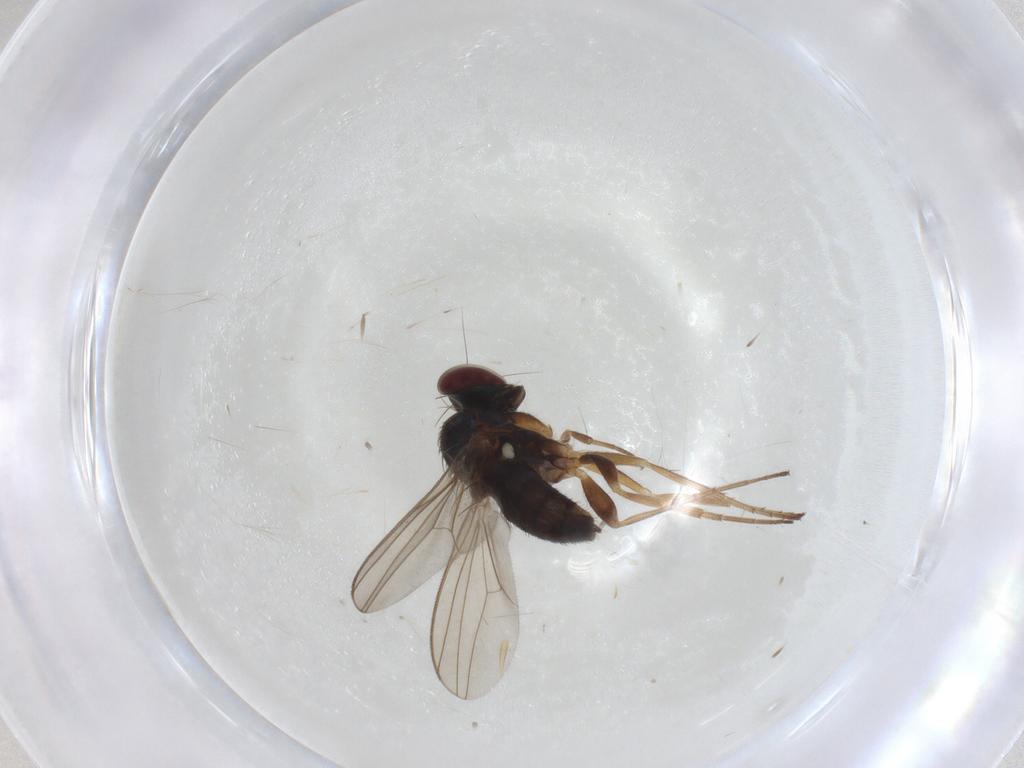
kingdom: Animalia
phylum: Arthropoda
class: Insecta
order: Diptera
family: Dolichopodidae
